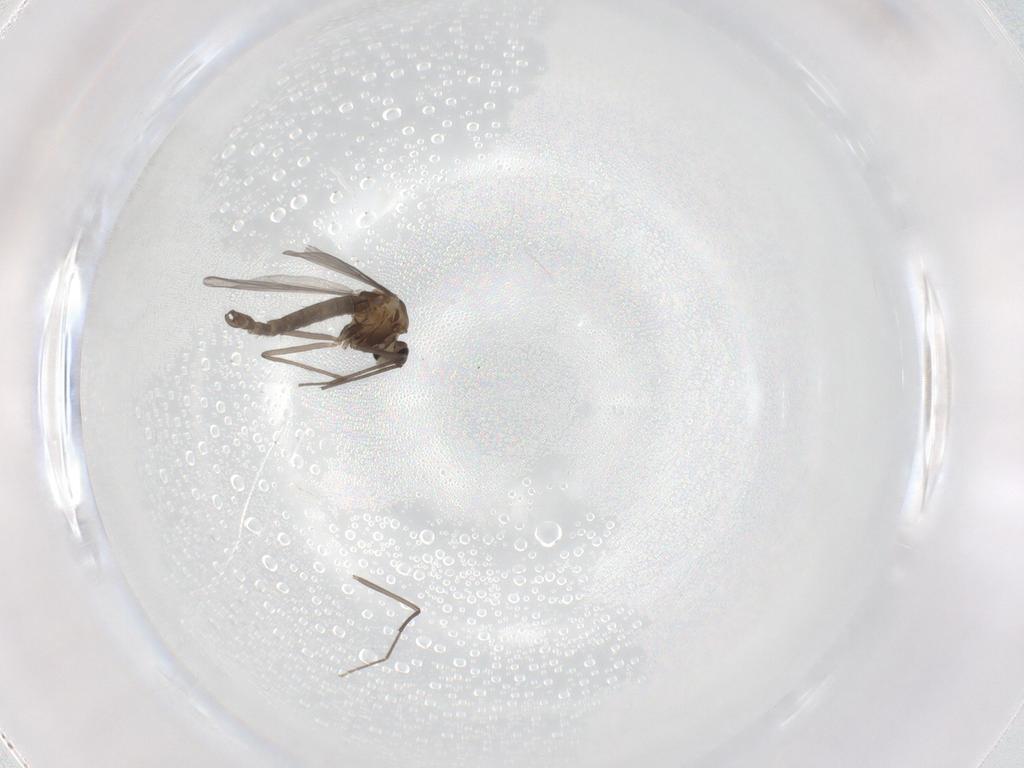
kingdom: Animalia
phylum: Arthropoda
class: Insecta
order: Diptera
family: Chironomidae
